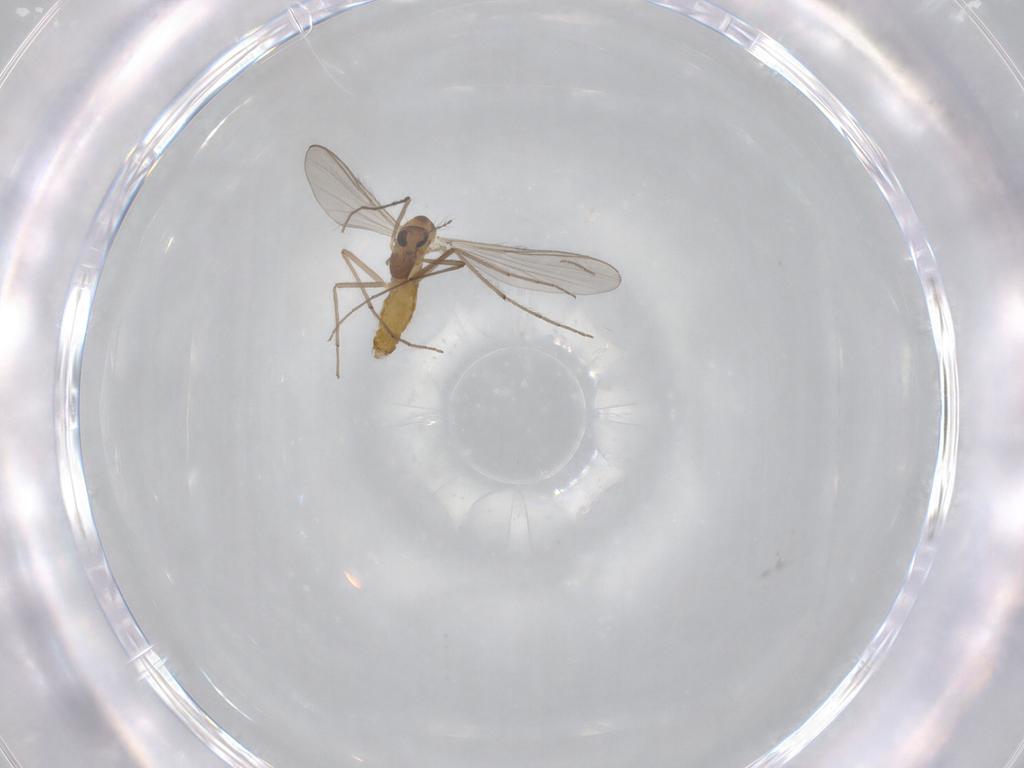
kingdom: Animalia
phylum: Arthropoda
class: Insecta
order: Diptera
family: Chironomidae
